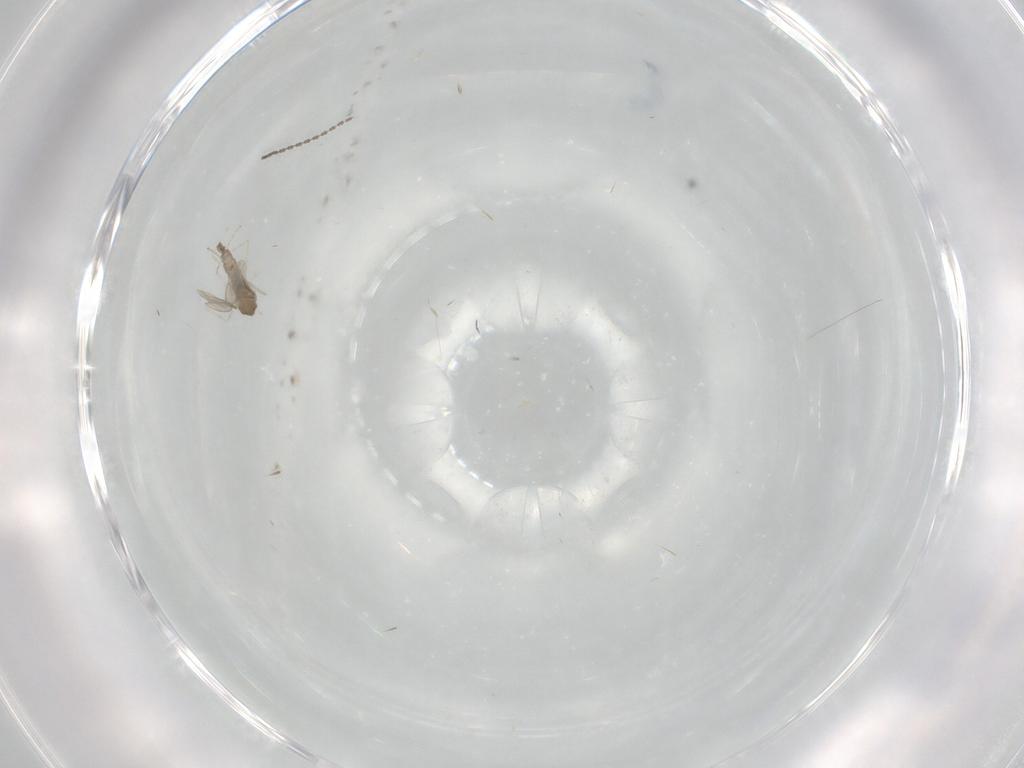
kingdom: Animalia
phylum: Arthropoda
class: Insecta
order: Diptera
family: Cecidomyiidae
